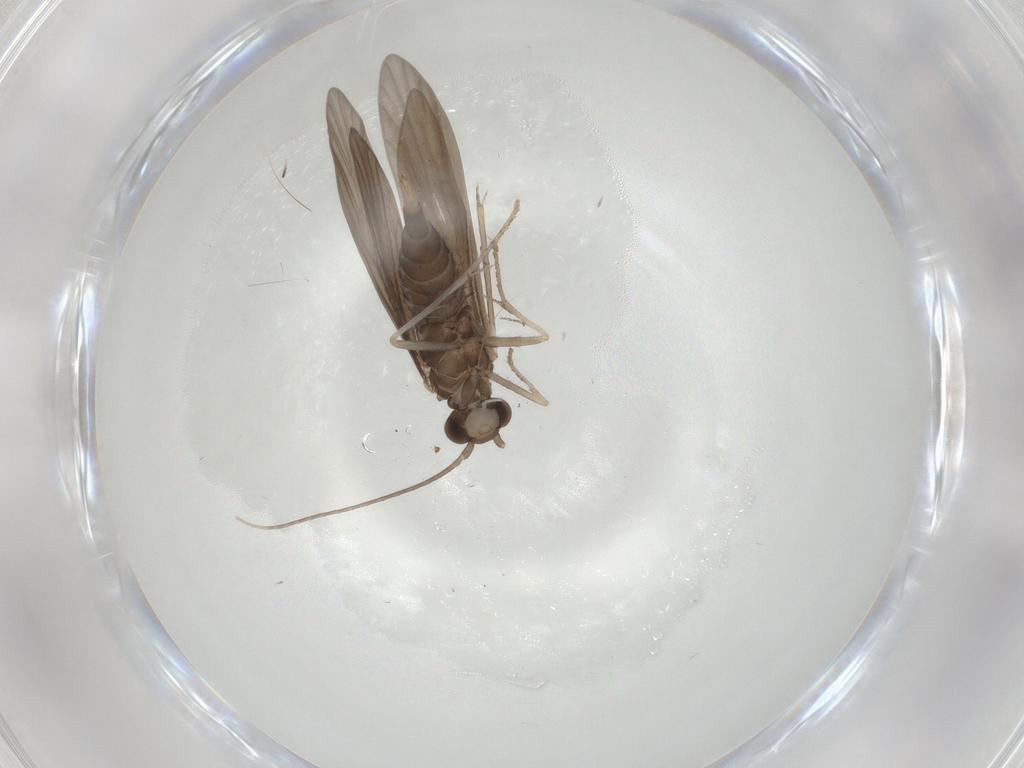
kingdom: Animalia
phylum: Arthropoda
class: Insecta
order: Trichoptera
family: Xiphocentronidae
